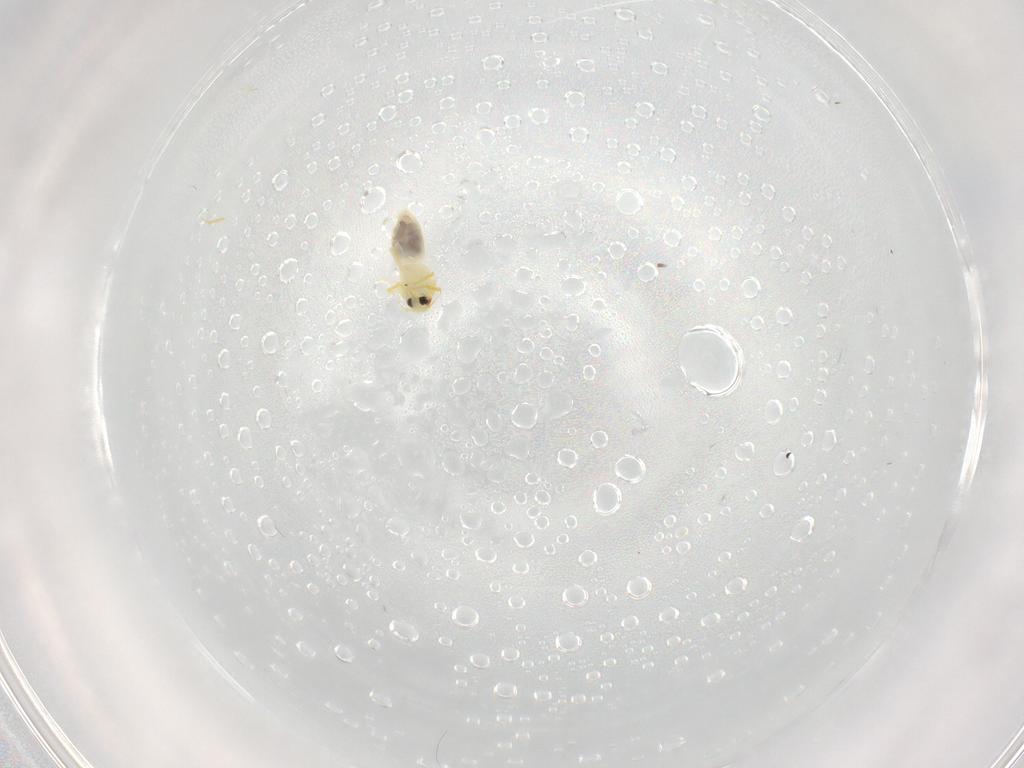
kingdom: Animalia
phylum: Arthropoda
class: Insecta
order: Hemiptera
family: Aleyrodidae
